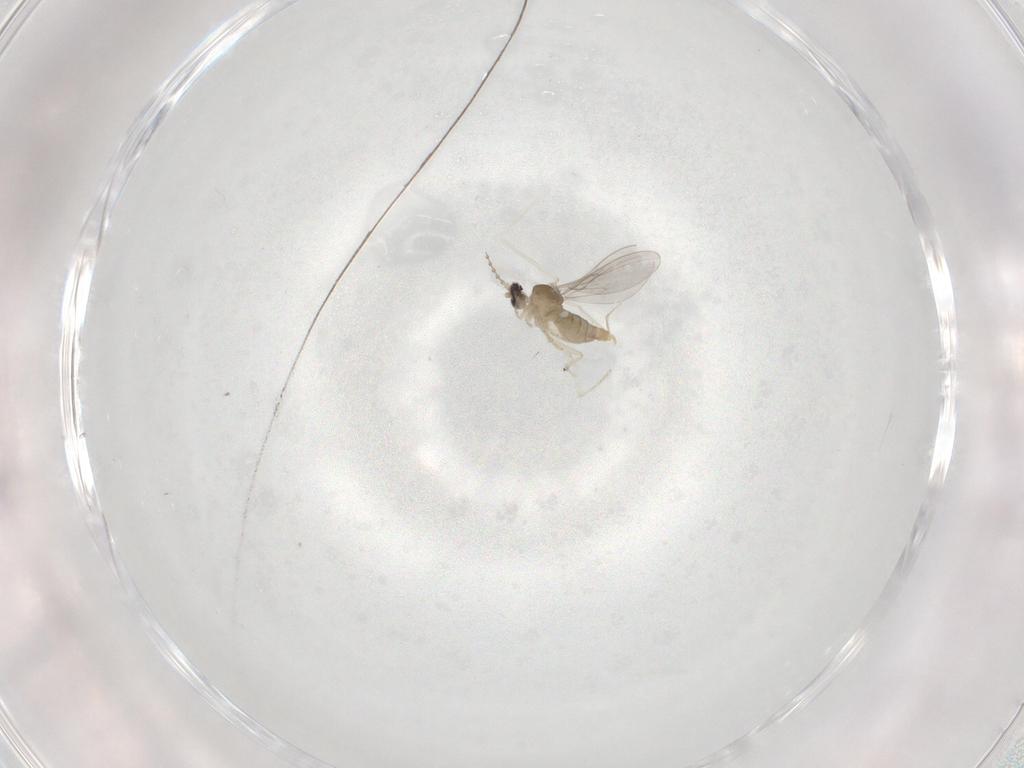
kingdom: Animalia
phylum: Arthropoda
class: Insecta
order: Diptera
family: Cecidomyiidae
